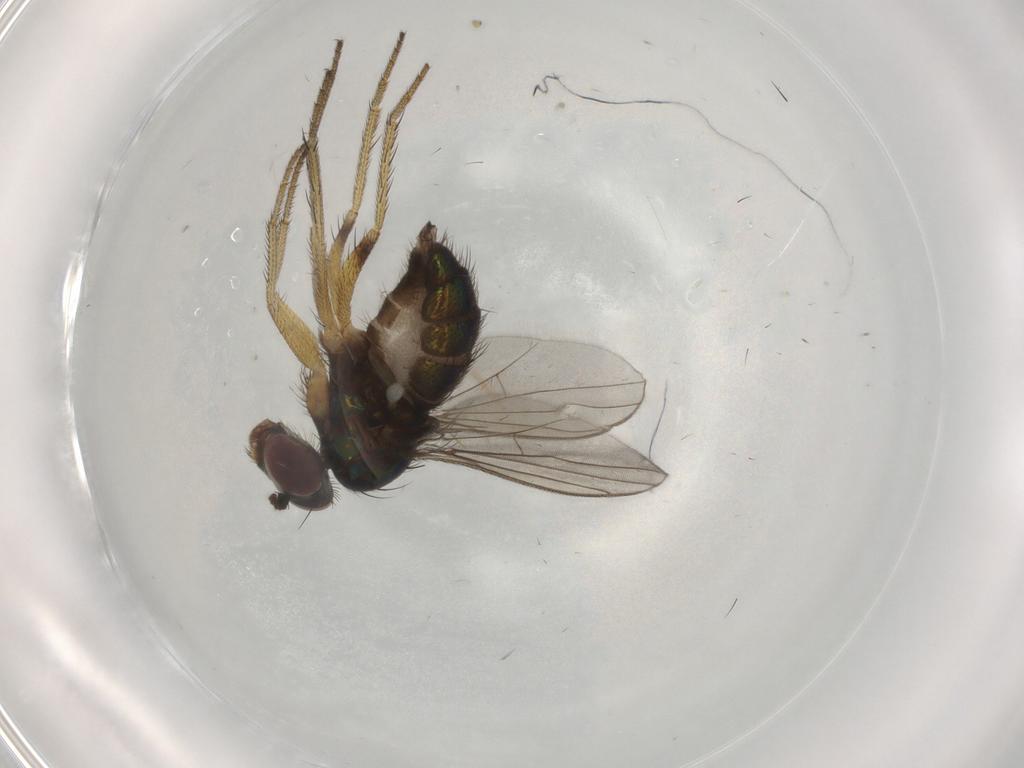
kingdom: Animalia
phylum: Arthropoda
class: Insecta
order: Diptera
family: Dolichopodidae
